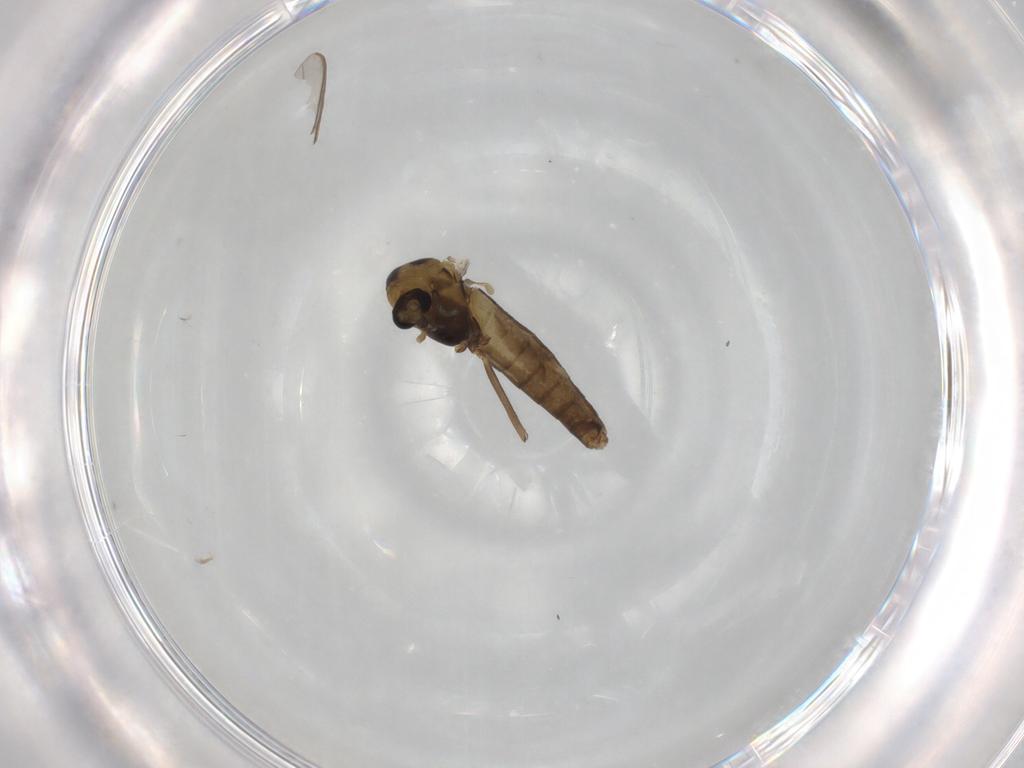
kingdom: Animalia
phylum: Arthropoda
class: Insecta
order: Diptera
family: Chironomidae
